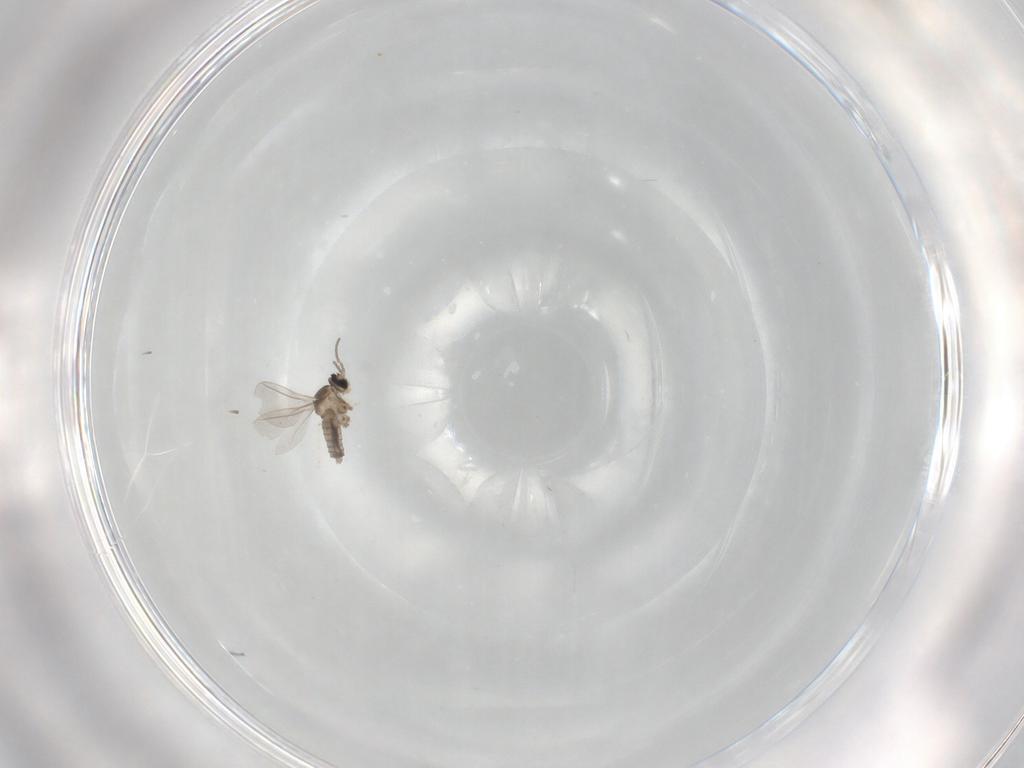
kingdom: Animalia
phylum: Arthropoda
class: Insecta
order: Diptera
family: Cecidomyiidae
